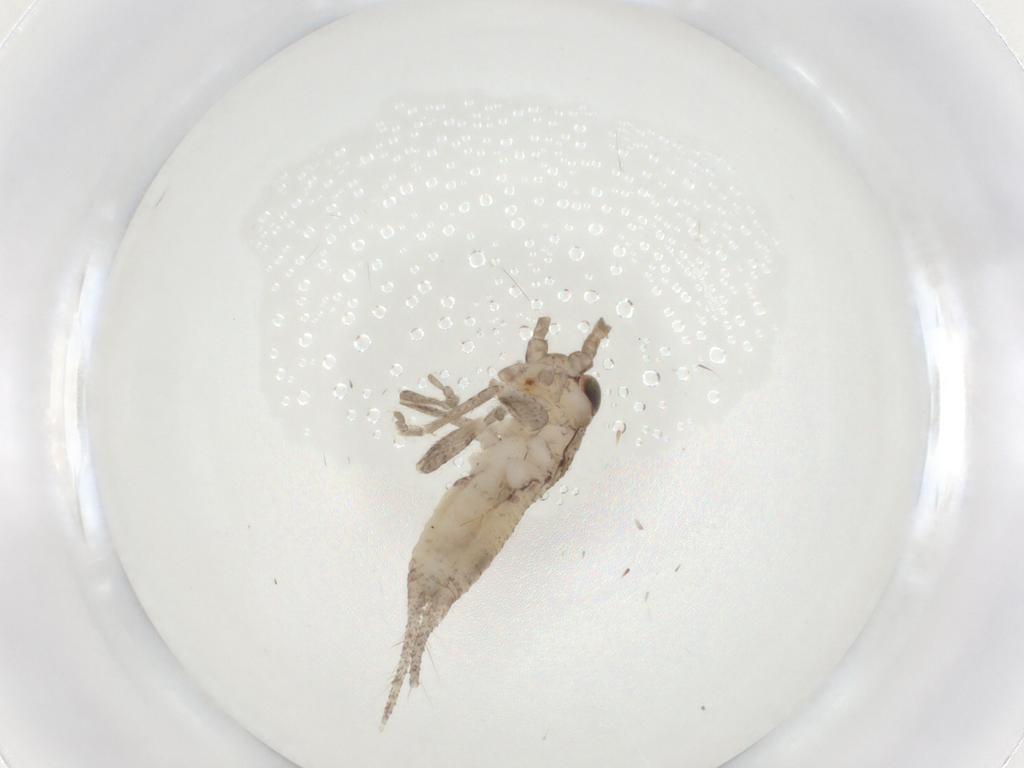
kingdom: Animalia
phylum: Arthropoda
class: Insecta
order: Orthoptera
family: Gryllidae
